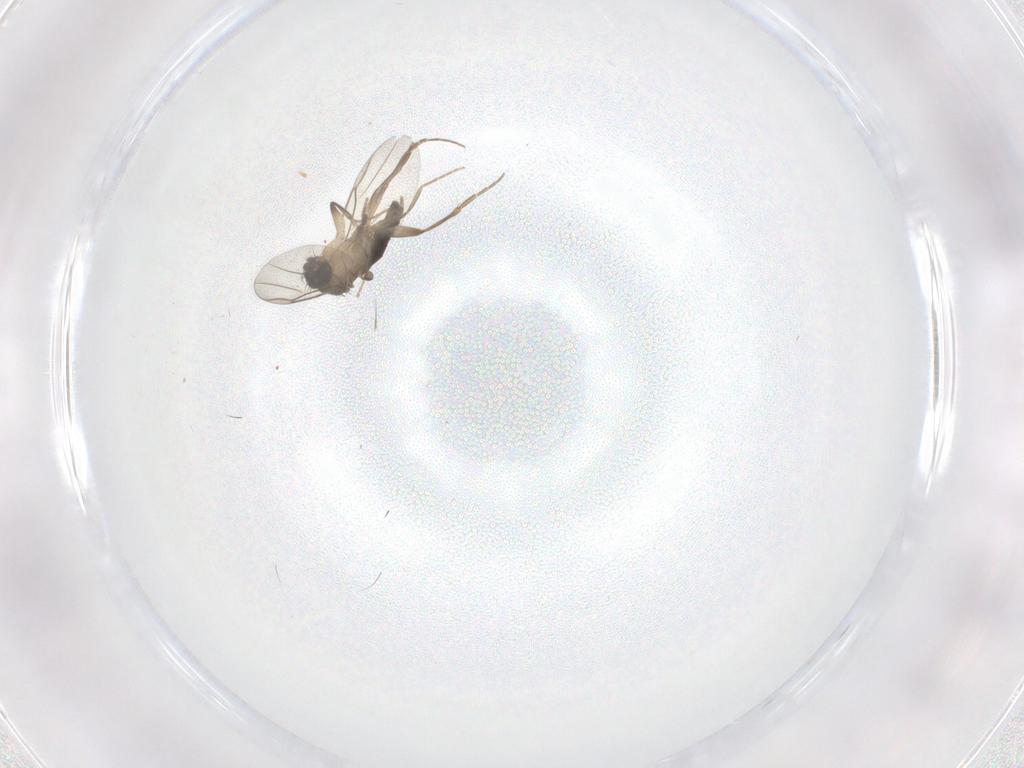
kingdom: Animalia
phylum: Arthropoda
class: Insecta
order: Diptera
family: Phoridae
